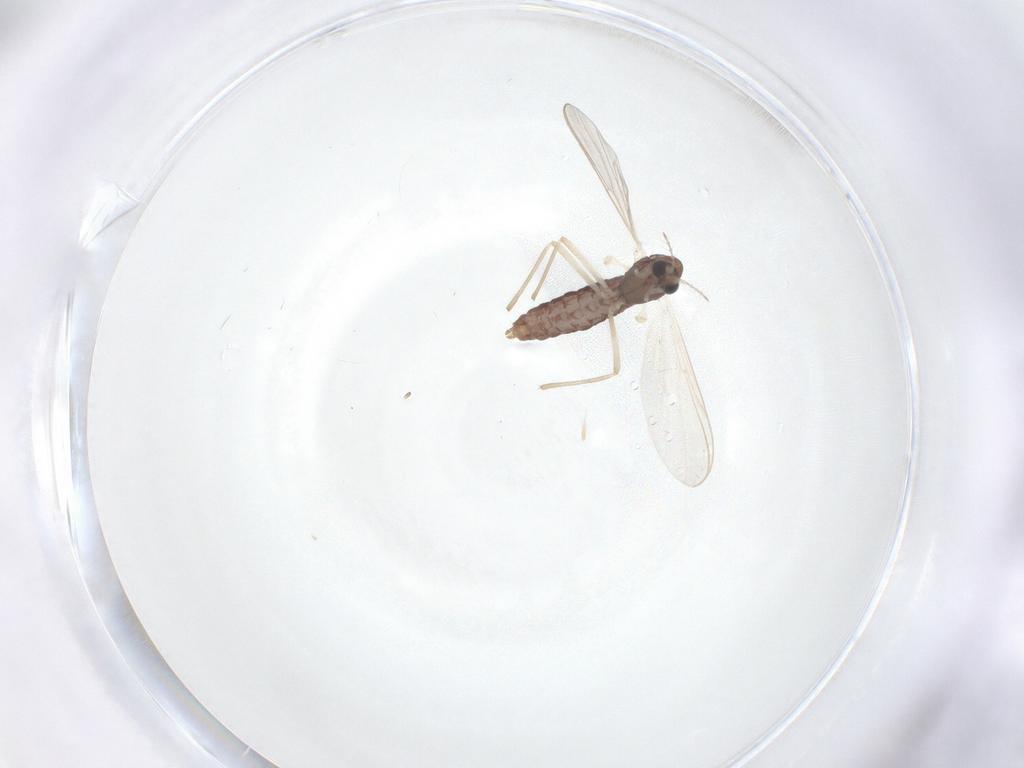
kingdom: Animalia
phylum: Arthropoda
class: Insecta
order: Diptera
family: Chironomidae
